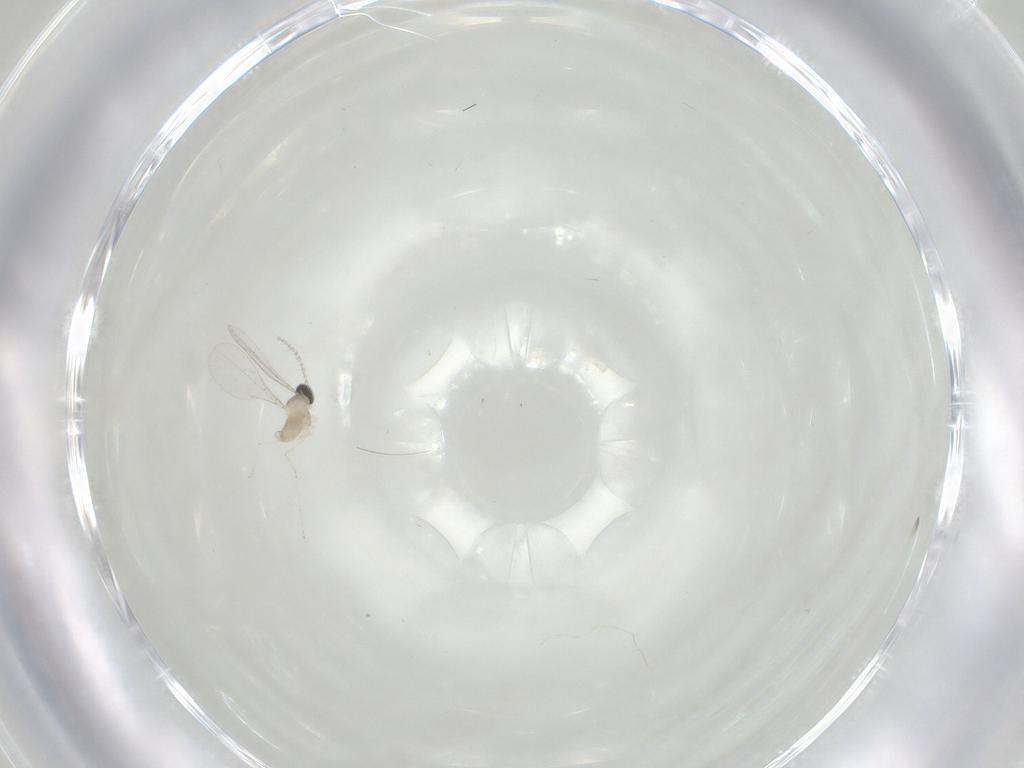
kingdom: Animalia
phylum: Arthropoda
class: Insecta
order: Diptera
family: Cecidomyiidae
